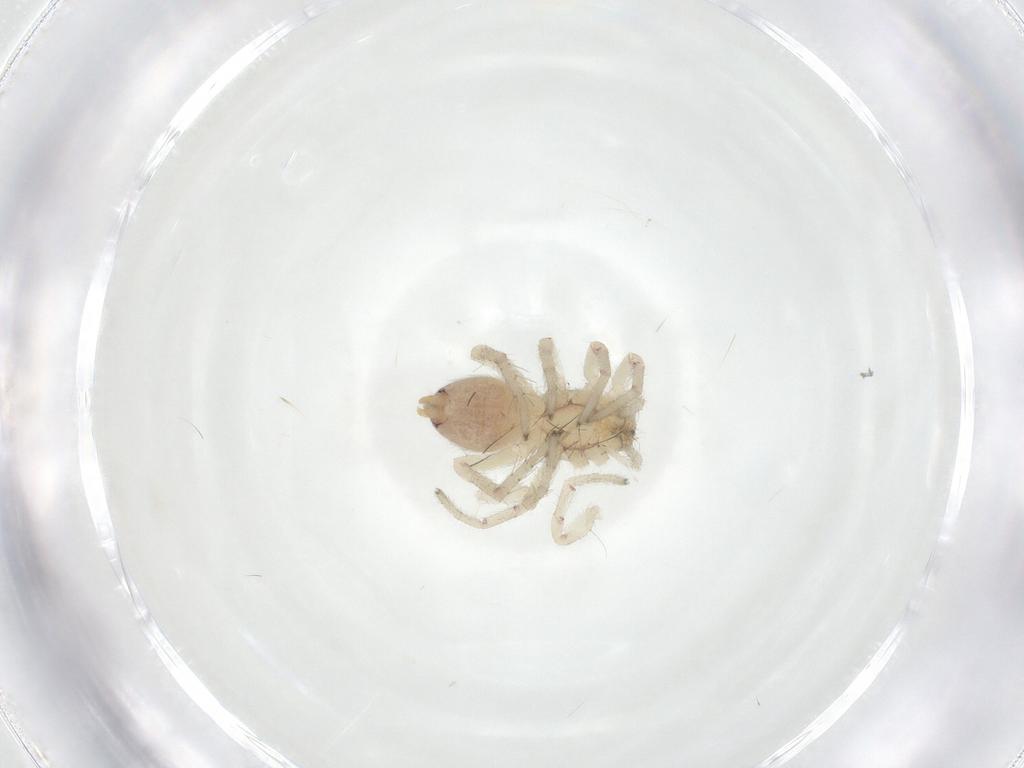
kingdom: Animalia
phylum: Arthropoda
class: Arachnida
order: Araneae
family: Clubionidae
